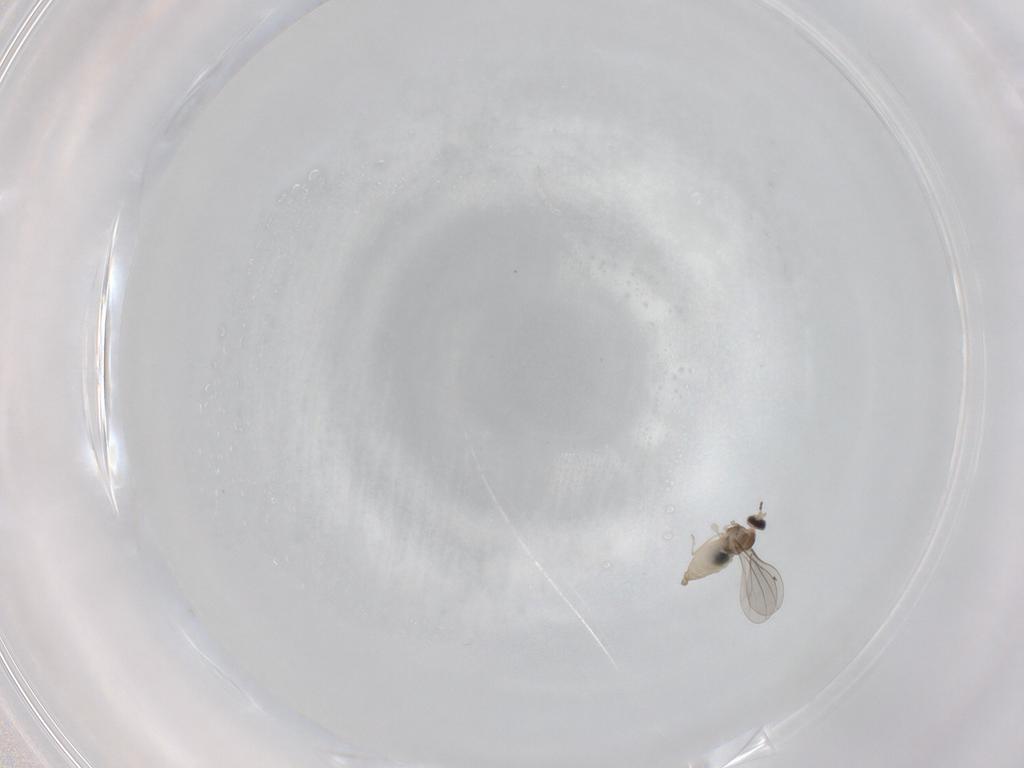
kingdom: Animalia
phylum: Arthropoda
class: Insecta
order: Diptera
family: Cecidomyiidae
